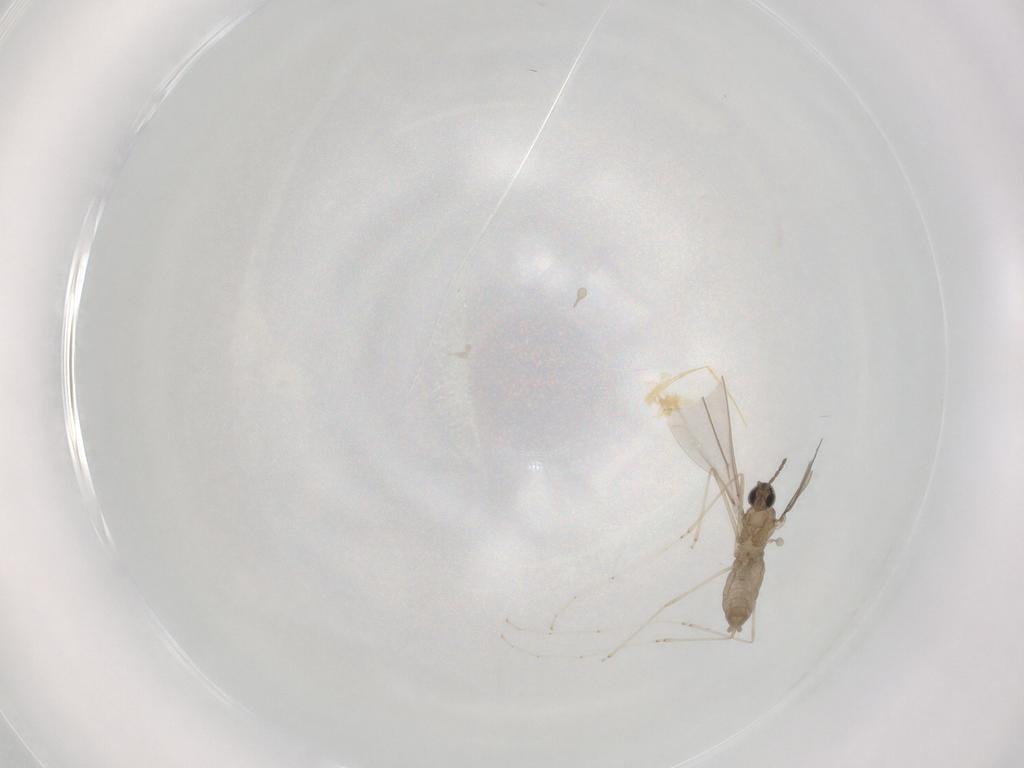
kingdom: Animalia
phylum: Arthropoda
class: Insecta
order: Diptera
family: Cecidomyiidae
